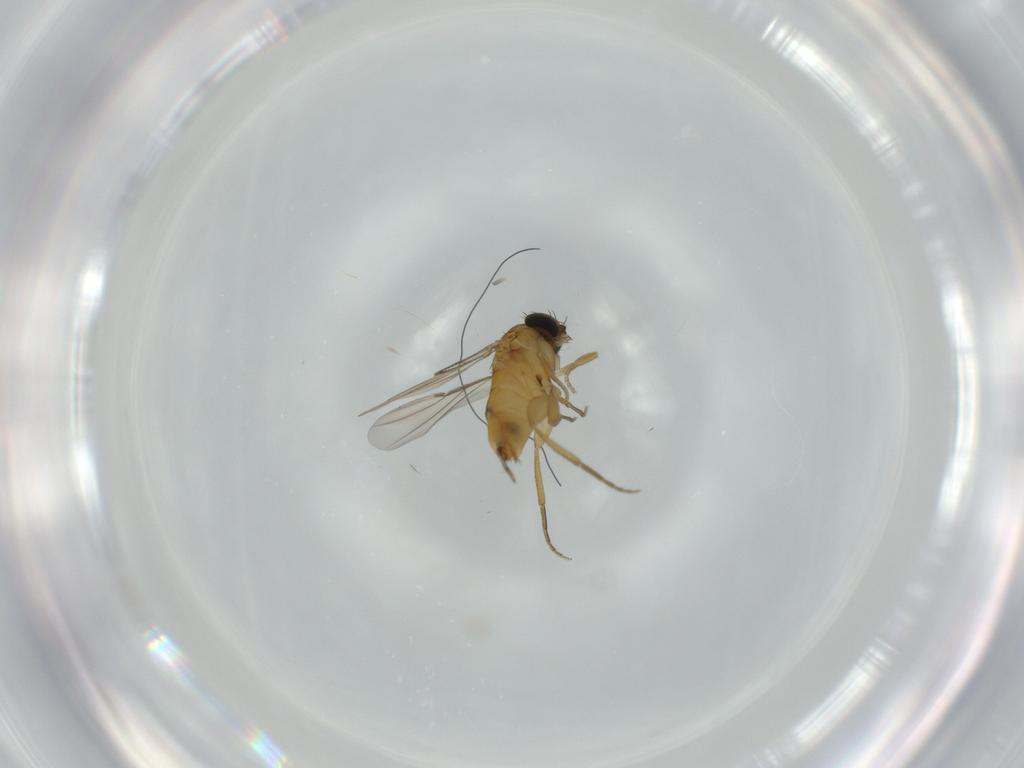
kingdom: Animalia
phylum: Arthropoda
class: Insecta
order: Diptera
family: Phoridae
